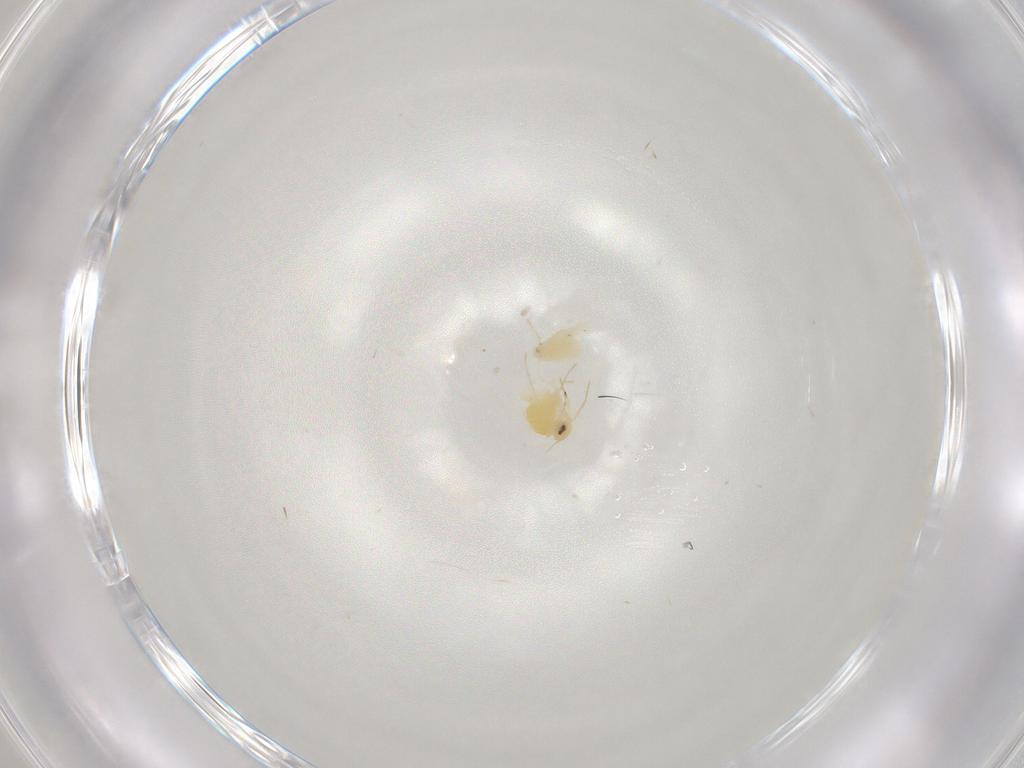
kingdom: Animalia
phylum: Arthropoda
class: Insecta
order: Hemiptera
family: Aleyrodidae
